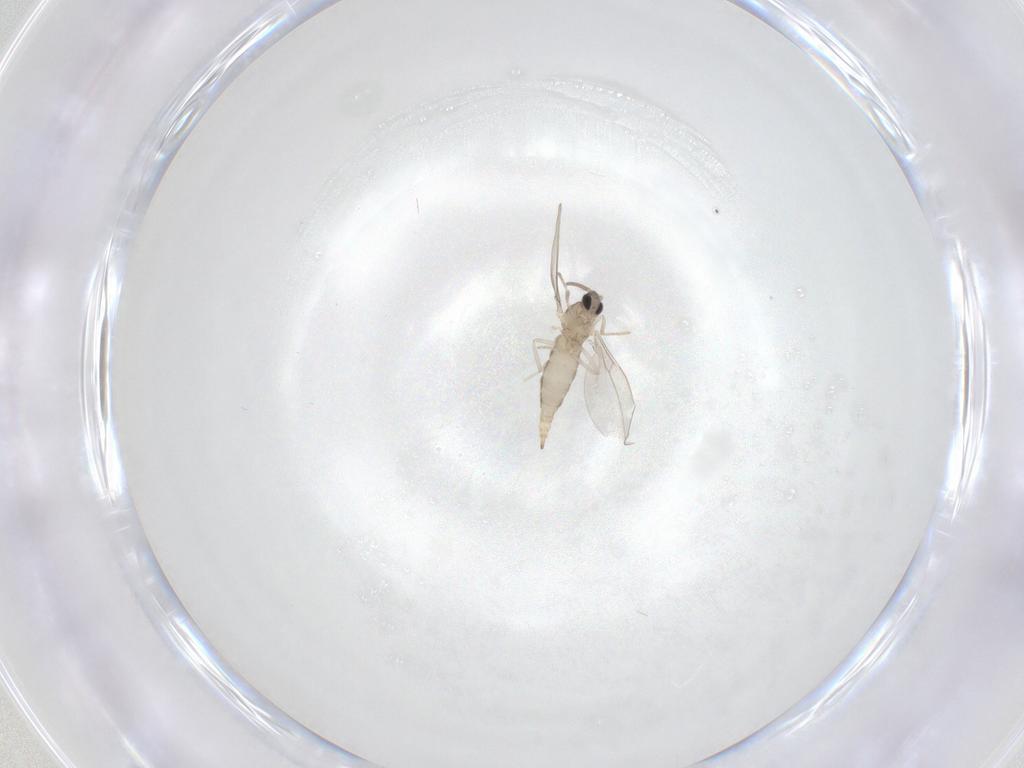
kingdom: Animalia
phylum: Arthropoda
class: Insecta
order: Diptera
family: Cecidomyiidae
